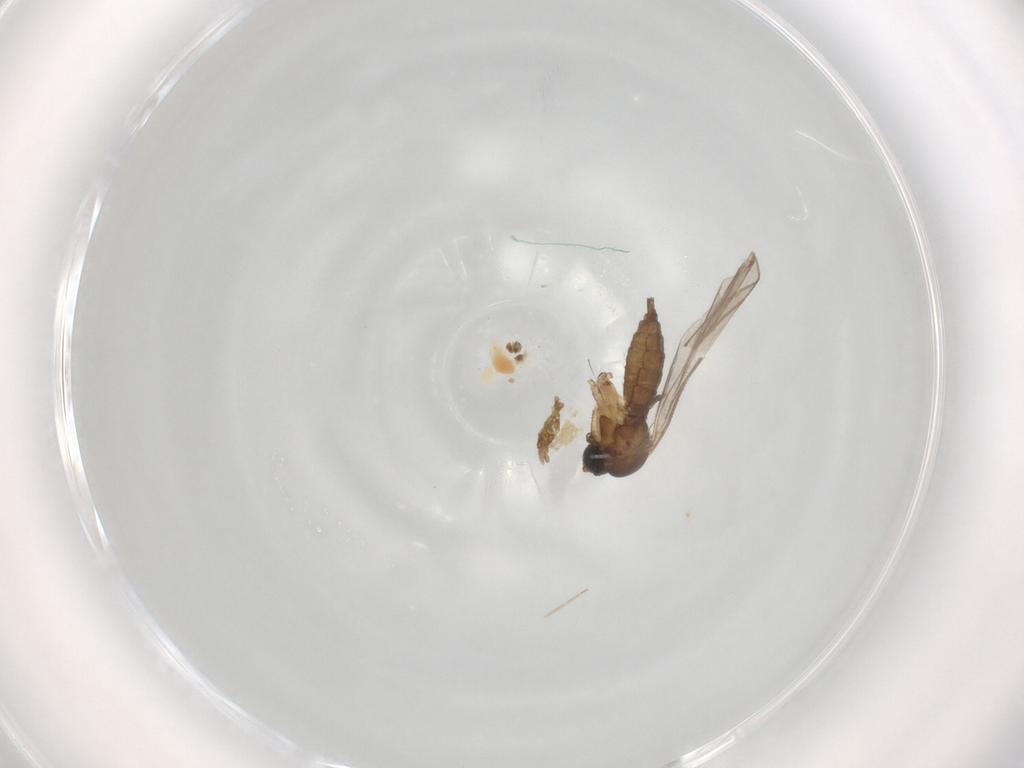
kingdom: Animalia
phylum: Arthropoda
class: Insecta
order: Diptera
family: Sciaridae
